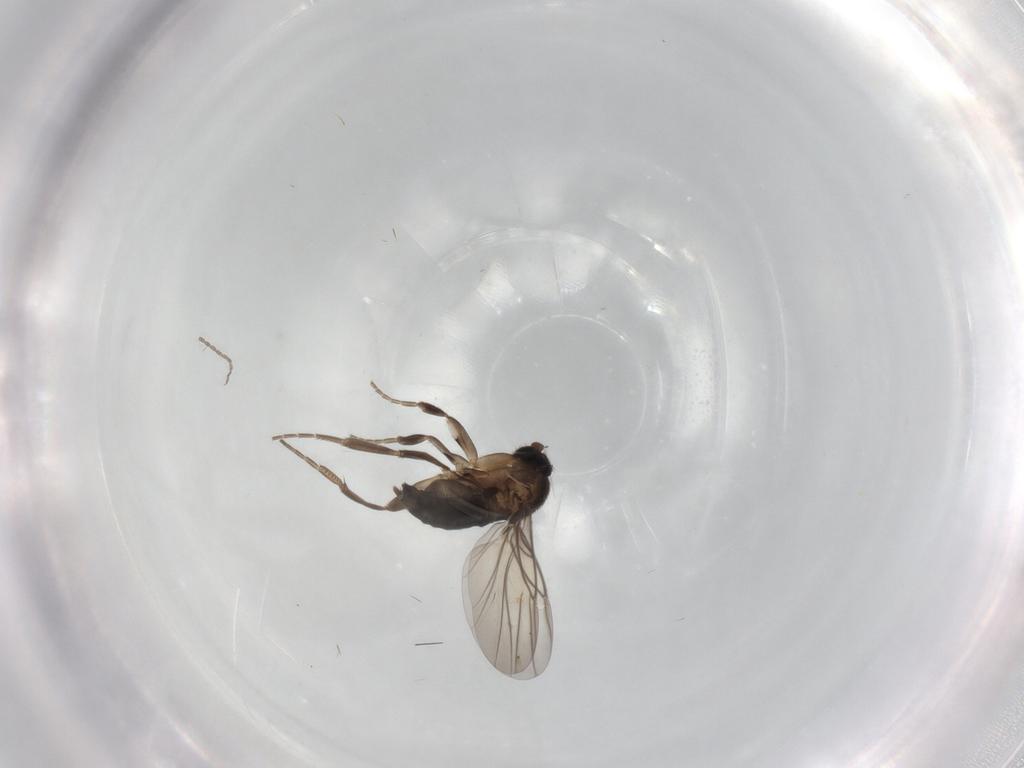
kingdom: Animalia
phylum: Arthropoda
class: Insecta
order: Diptera
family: Phoridae
